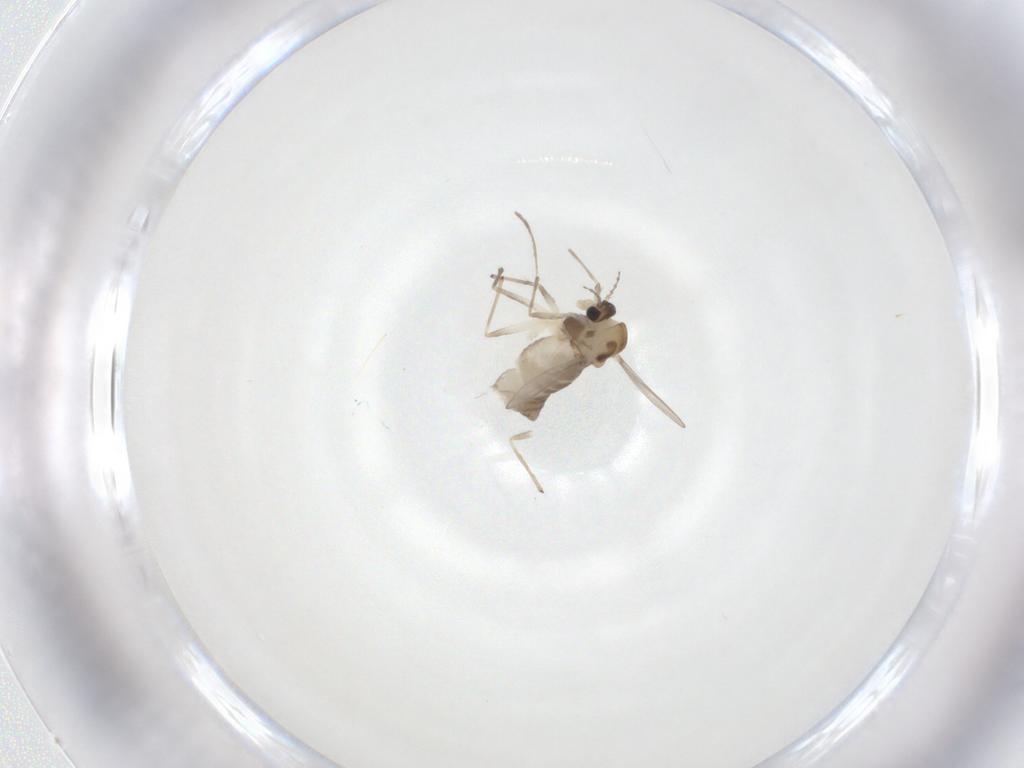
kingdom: Animalia
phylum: Arthropoda
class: Insecta
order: Diptera
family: Chironomidae
